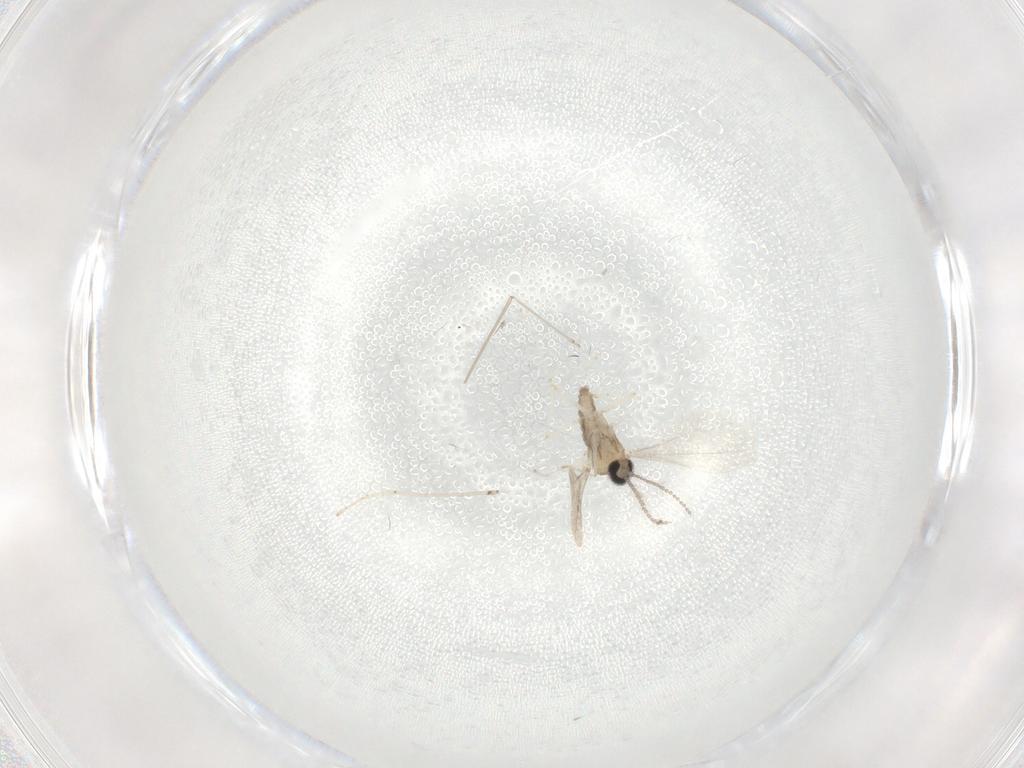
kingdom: Animalia
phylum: Arthropoda
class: Insecta
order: Diptera
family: Cecidomyiidae
